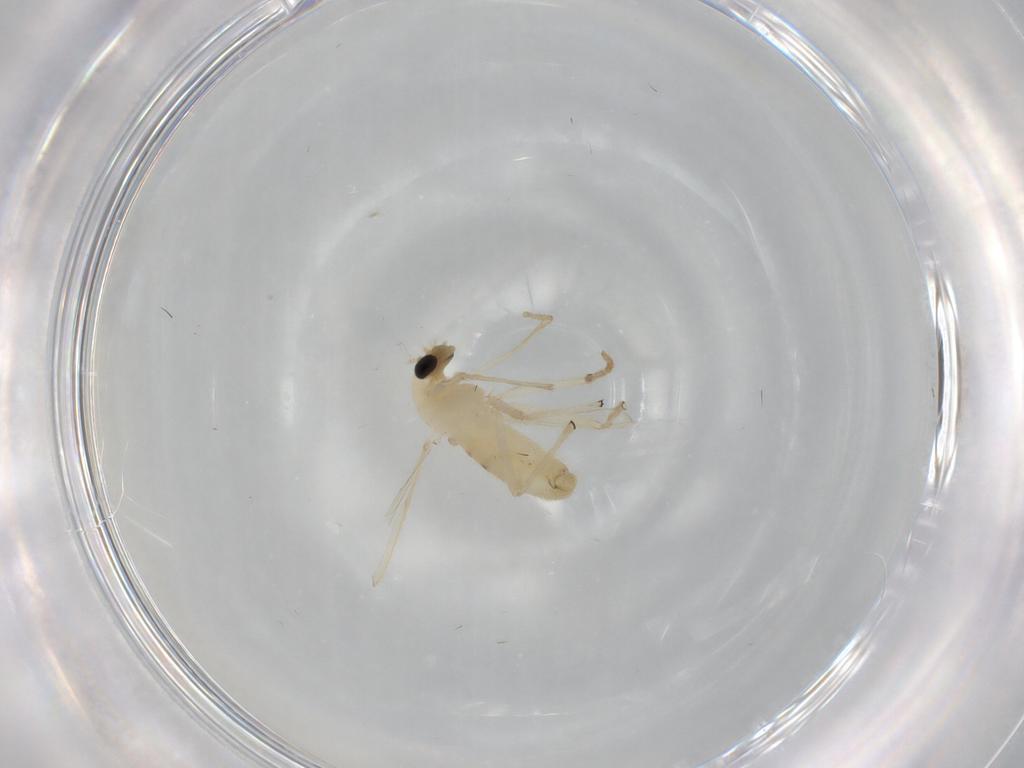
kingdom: Animalia
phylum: Arthropoda
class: Insecta
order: Diptera
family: Chironomidae
